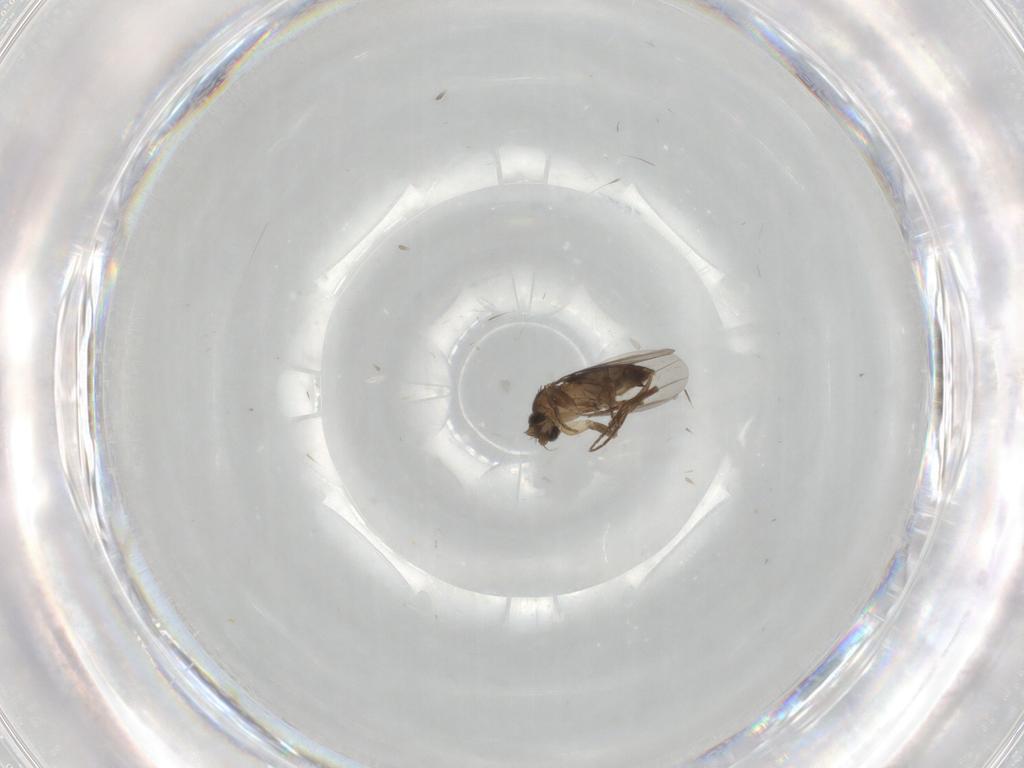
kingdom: Animalia
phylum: Arthropoda
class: Insecta
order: Diptera
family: Phoridae
